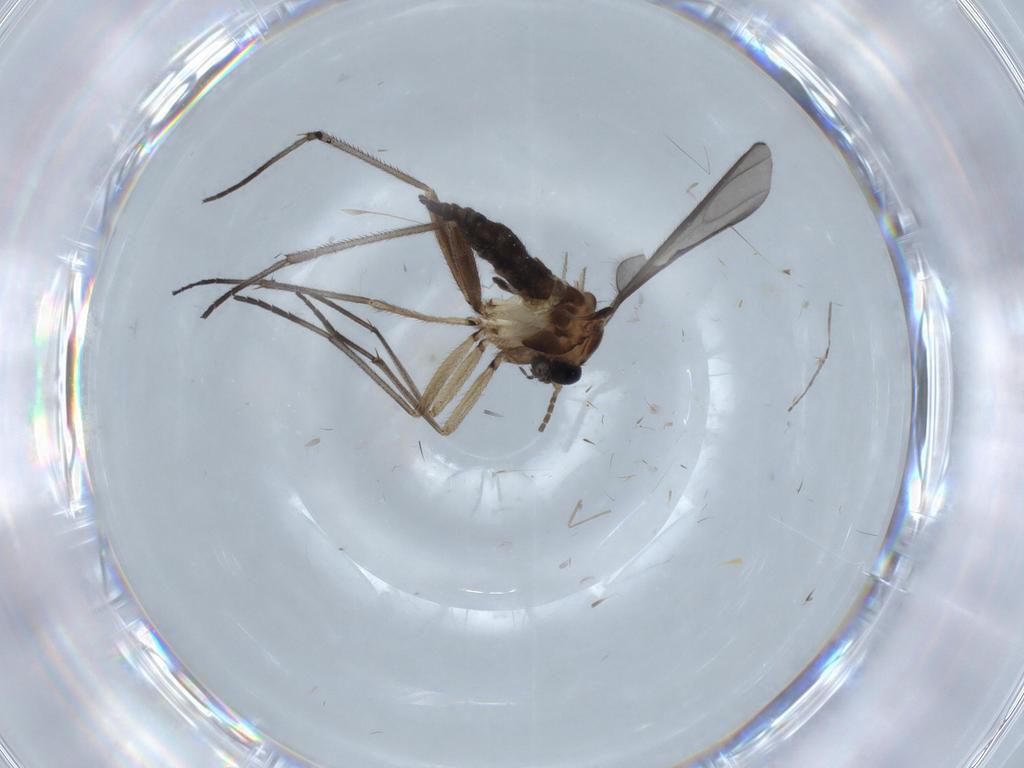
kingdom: Animalia
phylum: Arthropoda
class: Insecta
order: Diptera
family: Sciaridae
